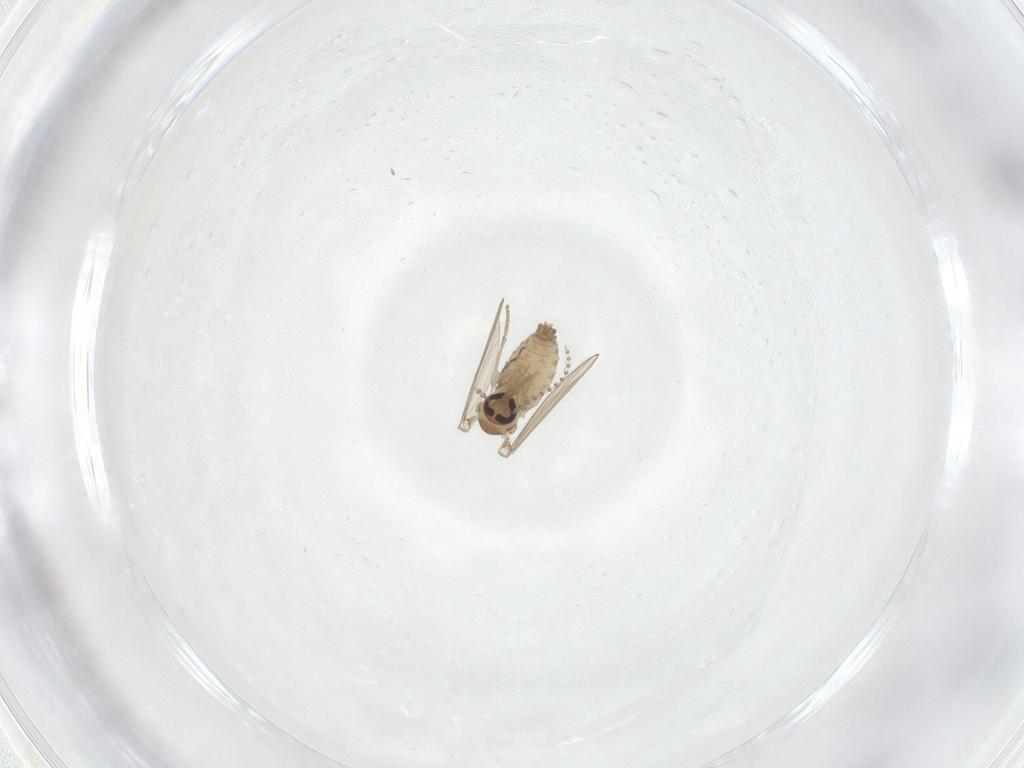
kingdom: Animalia
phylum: Arthropoda
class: Insecta
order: Diptera
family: Psychodidae
